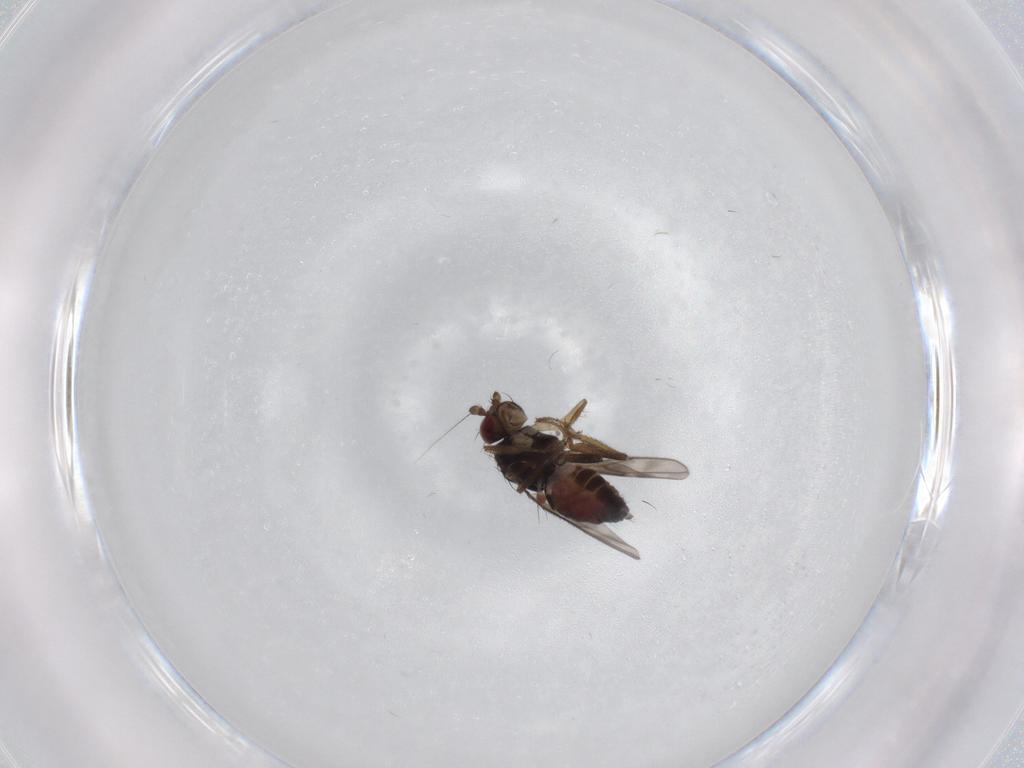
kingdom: Animalia
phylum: Arthropoda
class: Insecta
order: Diptera
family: Sphaeroceridae
